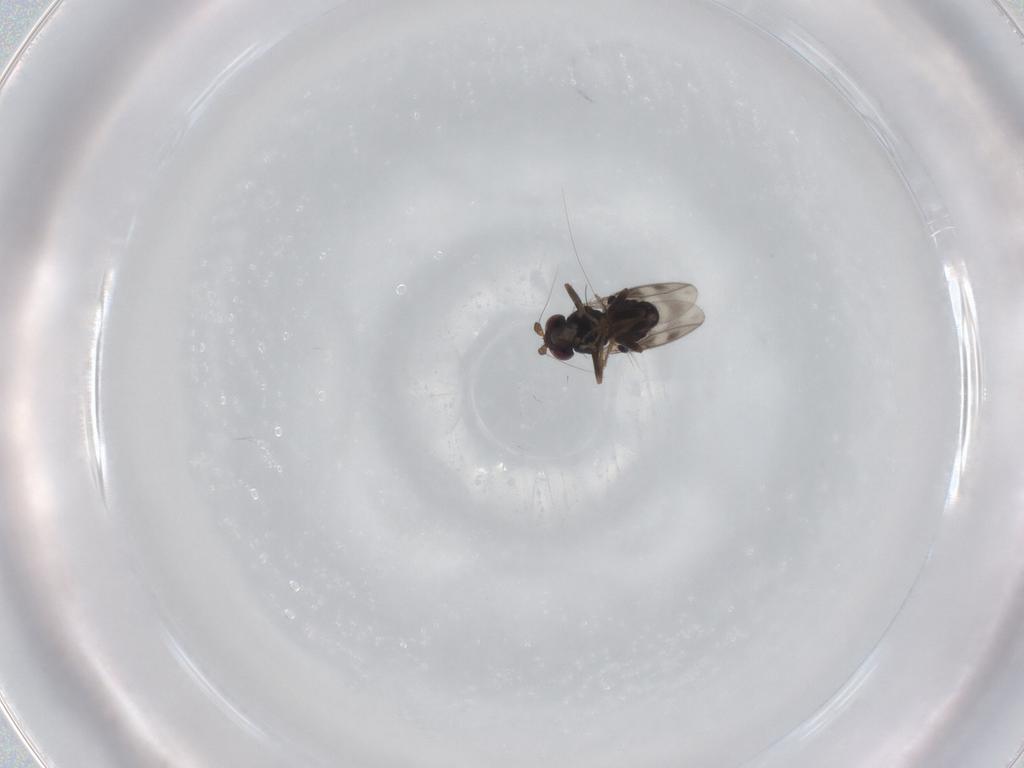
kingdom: Animalia
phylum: Arthropoda
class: Insecta
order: Diptera
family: Sphaeroceridae
